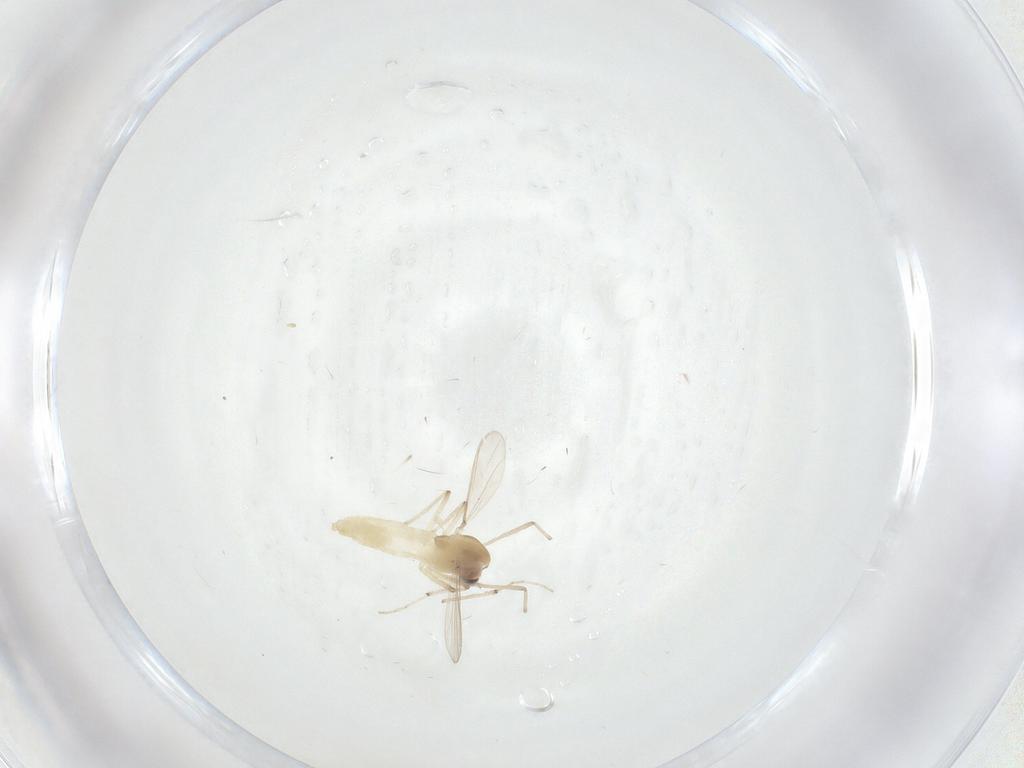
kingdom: Animalia
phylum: Arthropoda
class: Insecta
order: Diptera
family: Chironomidae
